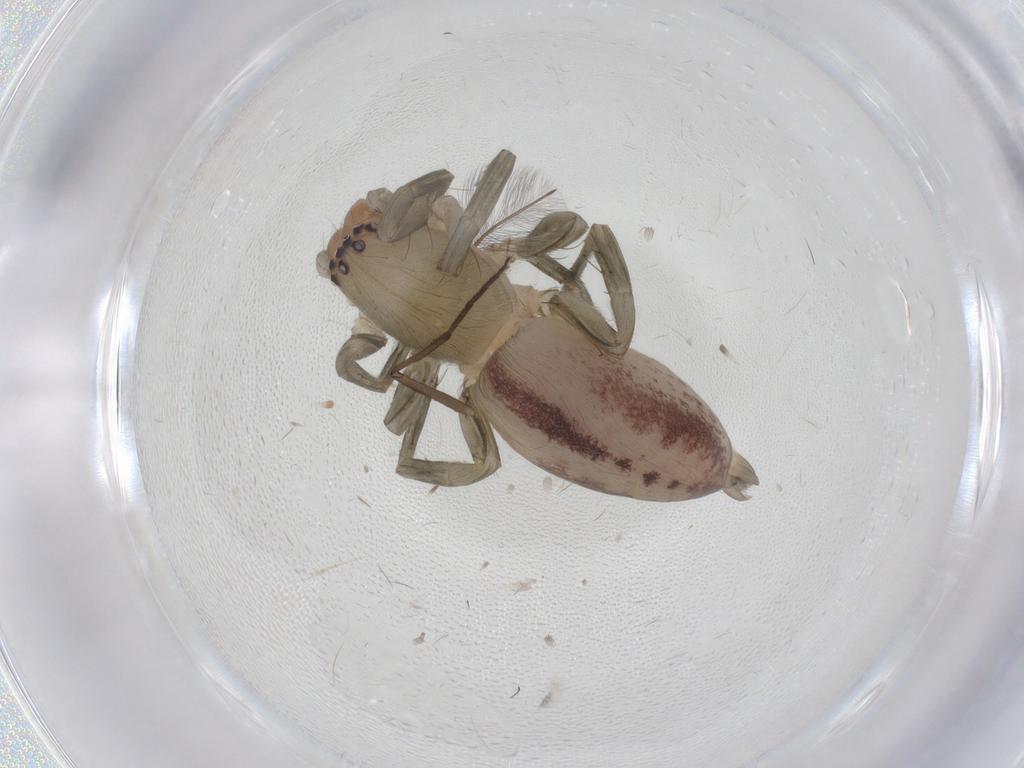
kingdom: Animalia
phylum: Arthropoda
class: Arachnida
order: Araneae
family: Clubionidae
